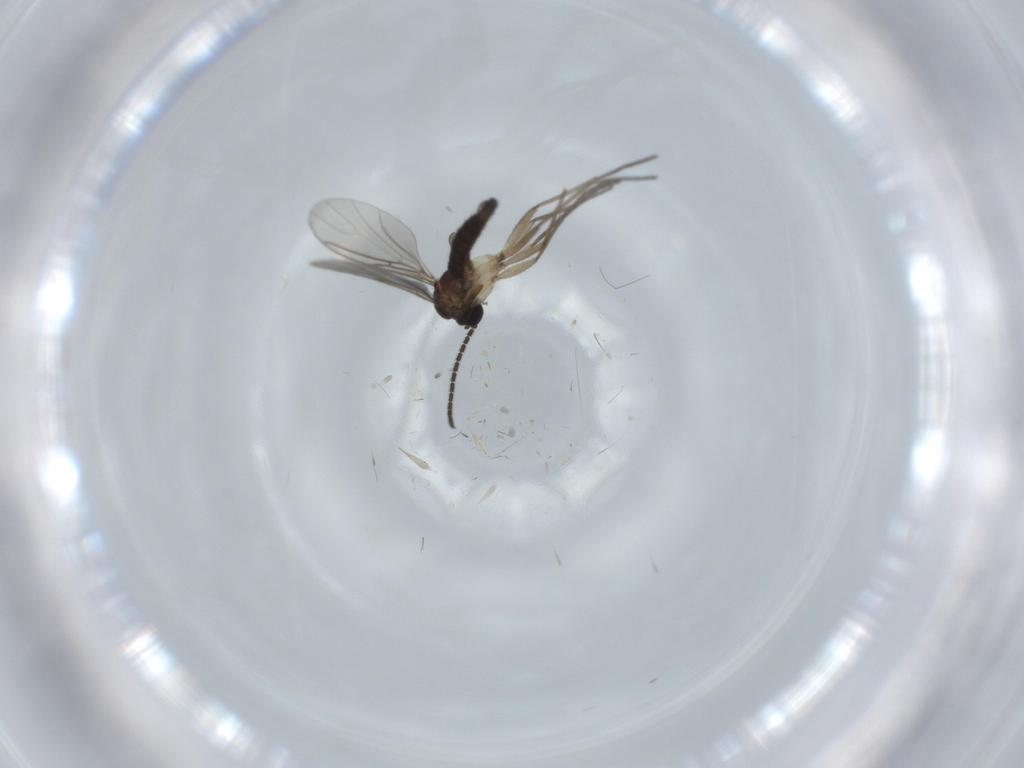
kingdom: Animalia
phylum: Arthropoda
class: Insecta
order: Diptera
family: Sciaridae
